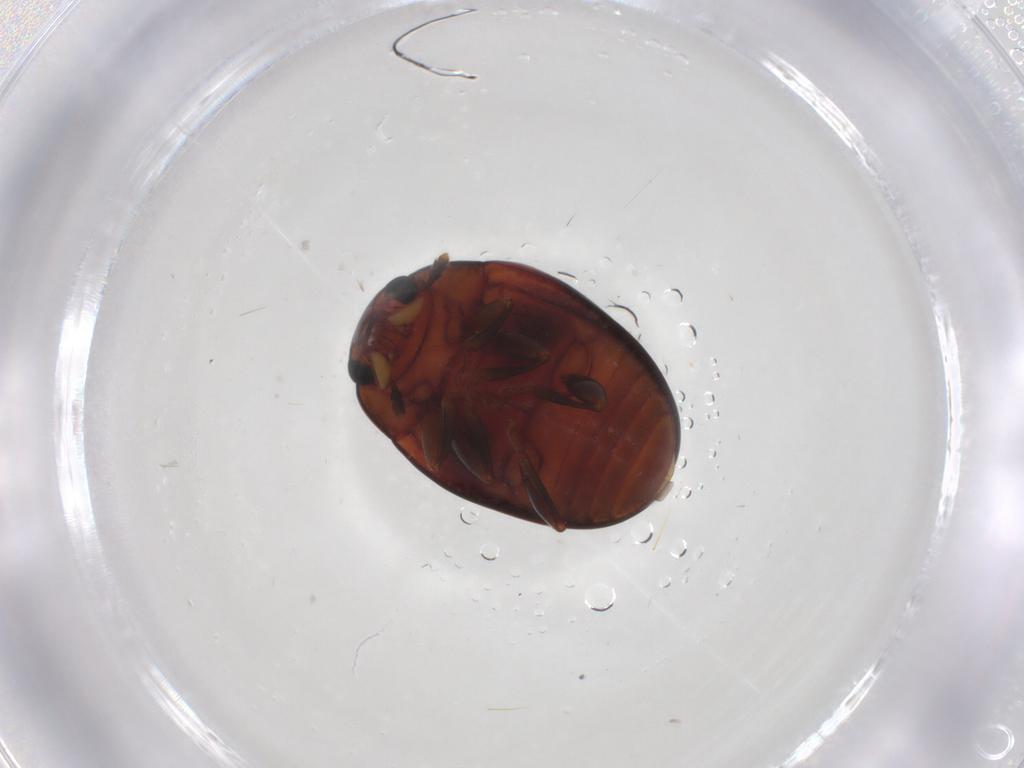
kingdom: Animalia
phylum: Arthropoda
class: Insecta
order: Coleoptera
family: Erotylidae
